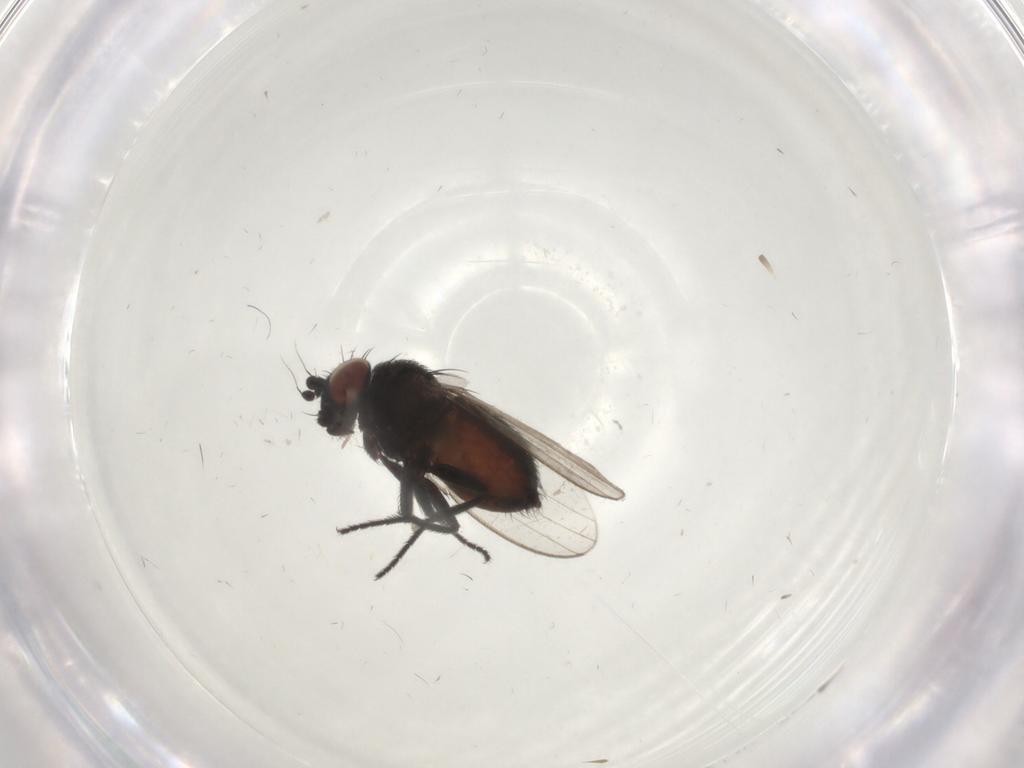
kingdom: Animalia
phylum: Arthropoda
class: Insecta
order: Diptera
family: Milichiidae
